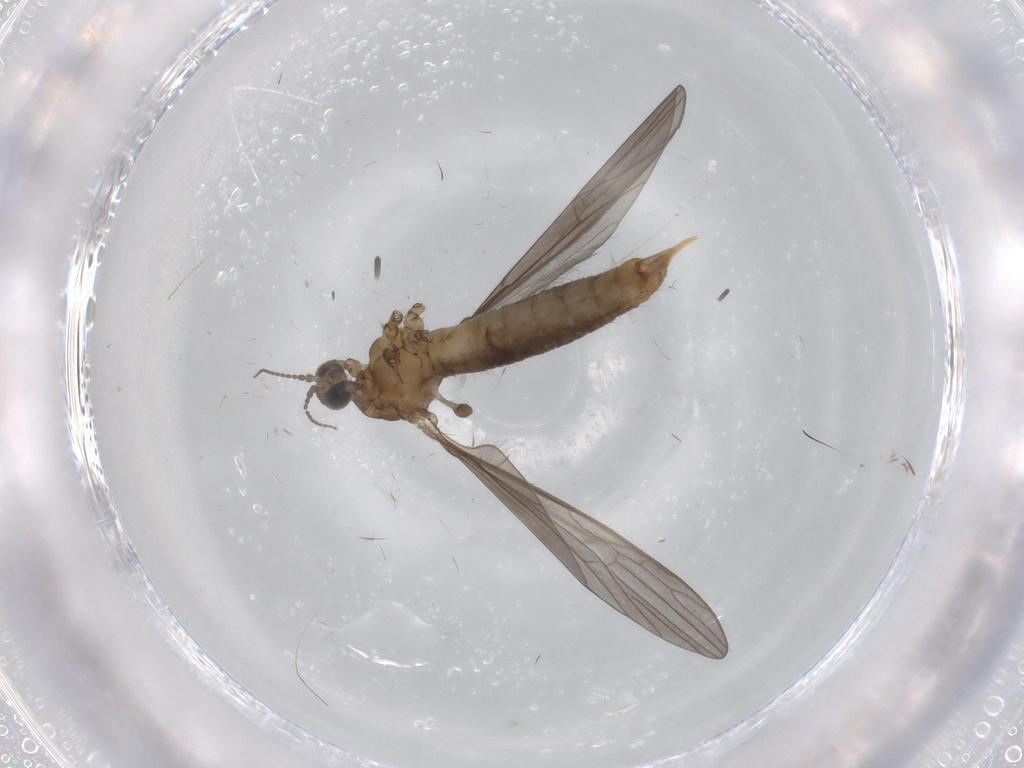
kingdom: Animalia
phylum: Arthropoda
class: Insecta
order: Diptera
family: Limoniidae
